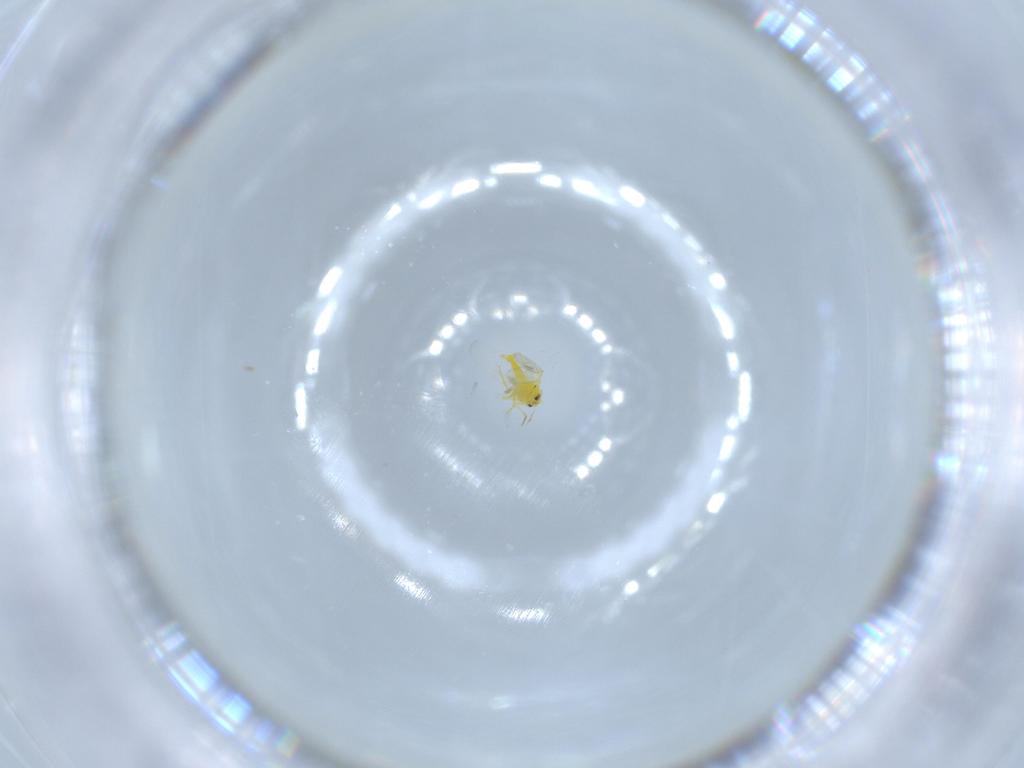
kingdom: Animalia
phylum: Arthropoda
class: Insecta
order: Hemiptera
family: Aleyrodidae
